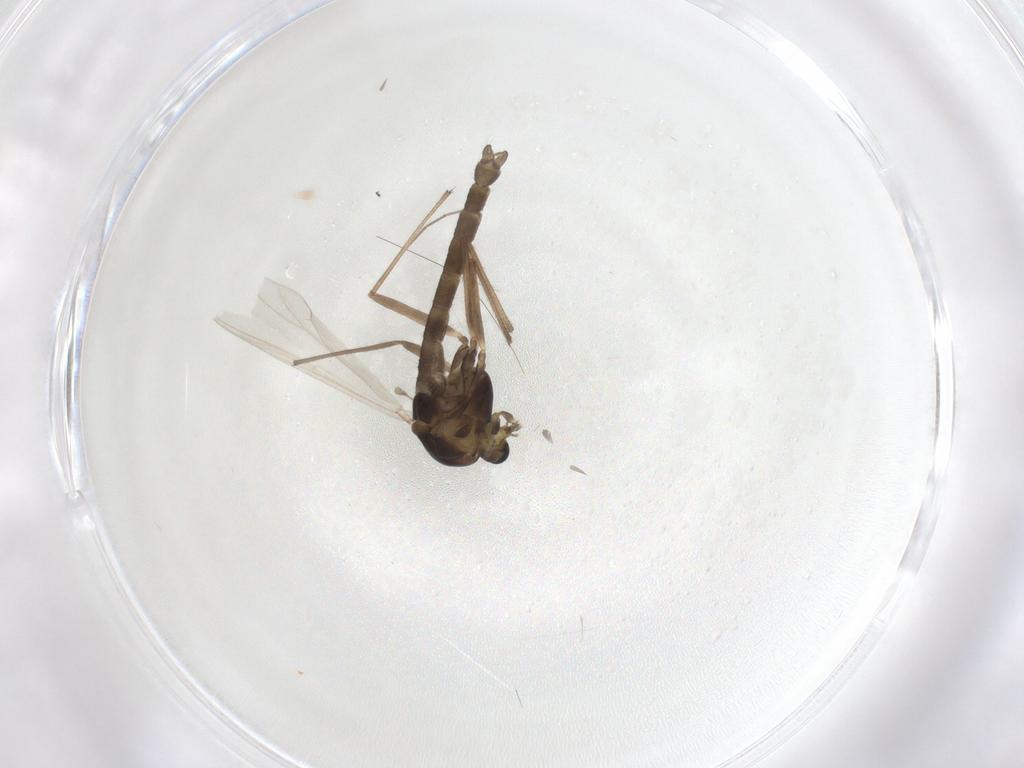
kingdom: Animalia
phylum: Arthropoda
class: Insecta
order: Diptera
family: Chironomidae
